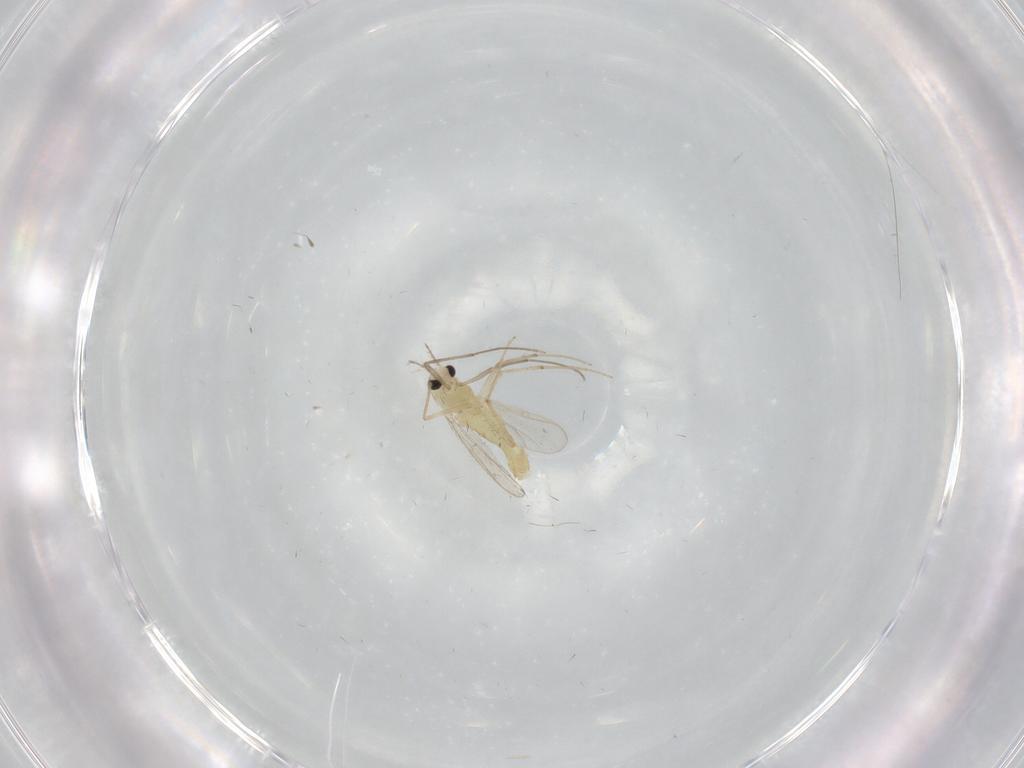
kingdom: Animalia
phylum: Arthropoda
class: Insecta
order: Diptera
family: Chironomidae
